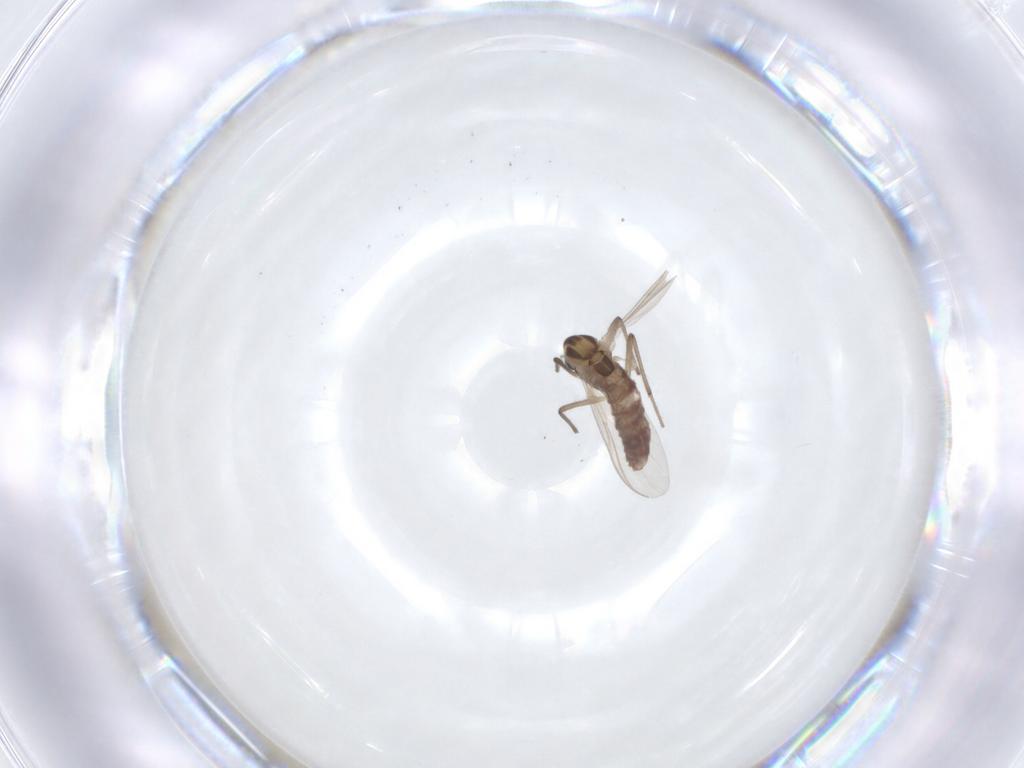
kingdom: Animalia
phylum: Arthropoda
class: Insecta
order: Diptera
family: Chironomidae
